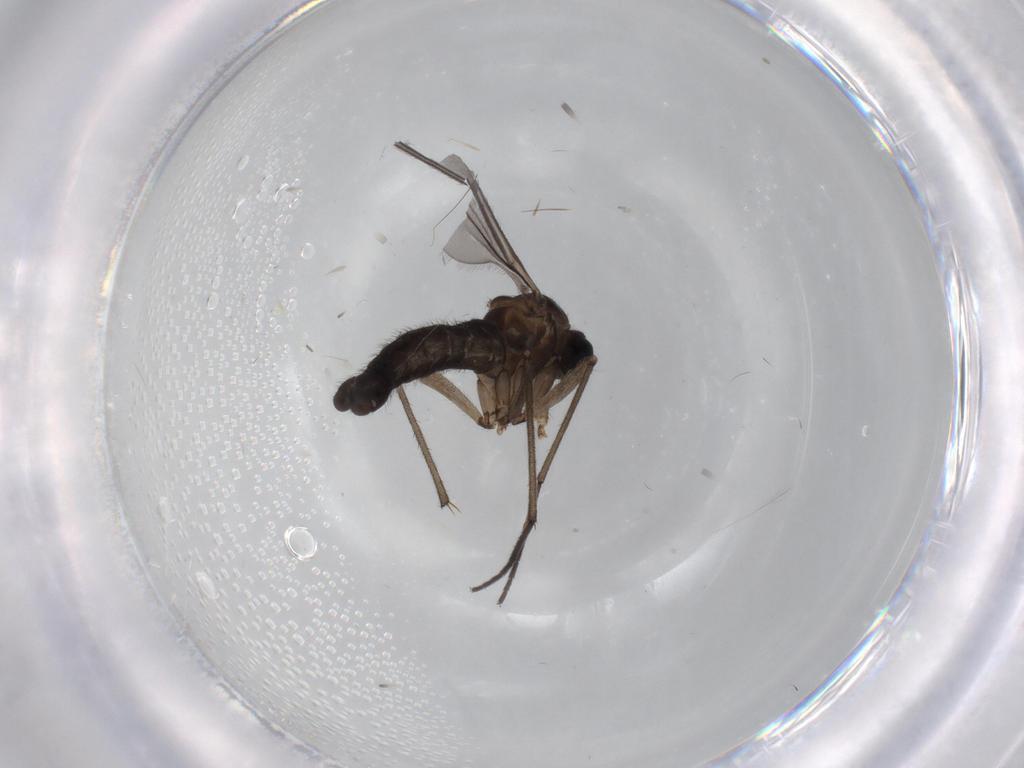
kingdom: Animalia
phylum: Arthropoda
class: Insecta
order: Diptera
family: Sciaridae
